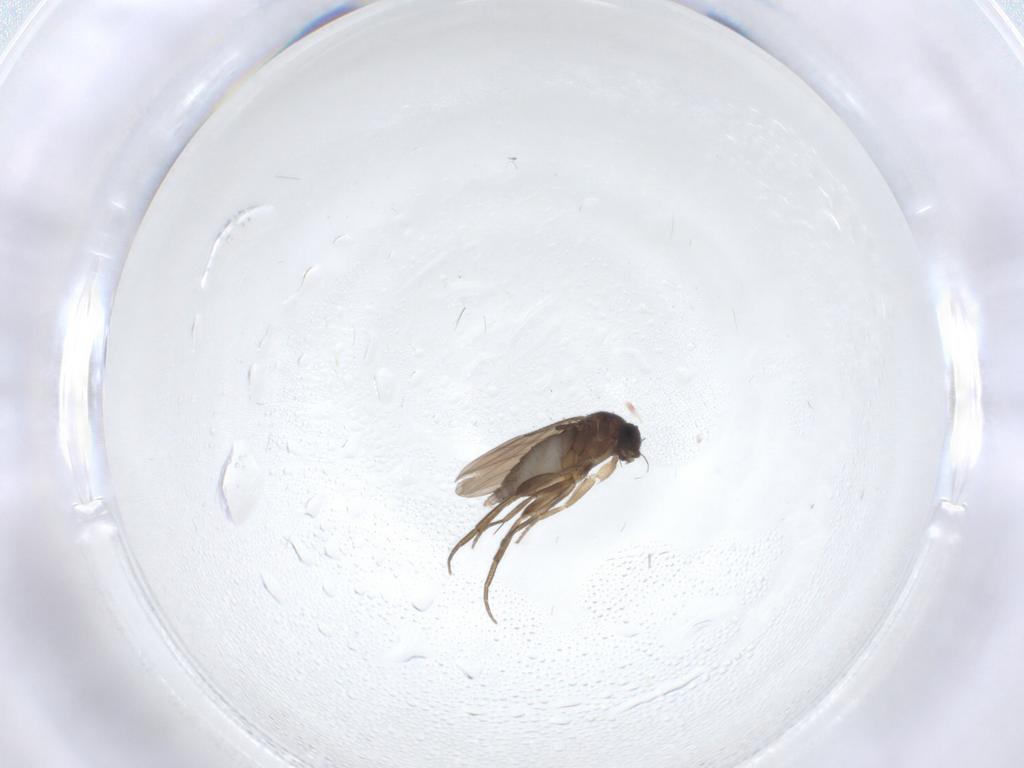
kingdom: Animalia
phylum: Arthropoda
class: Insecta
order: Diptera
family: Phoridae
